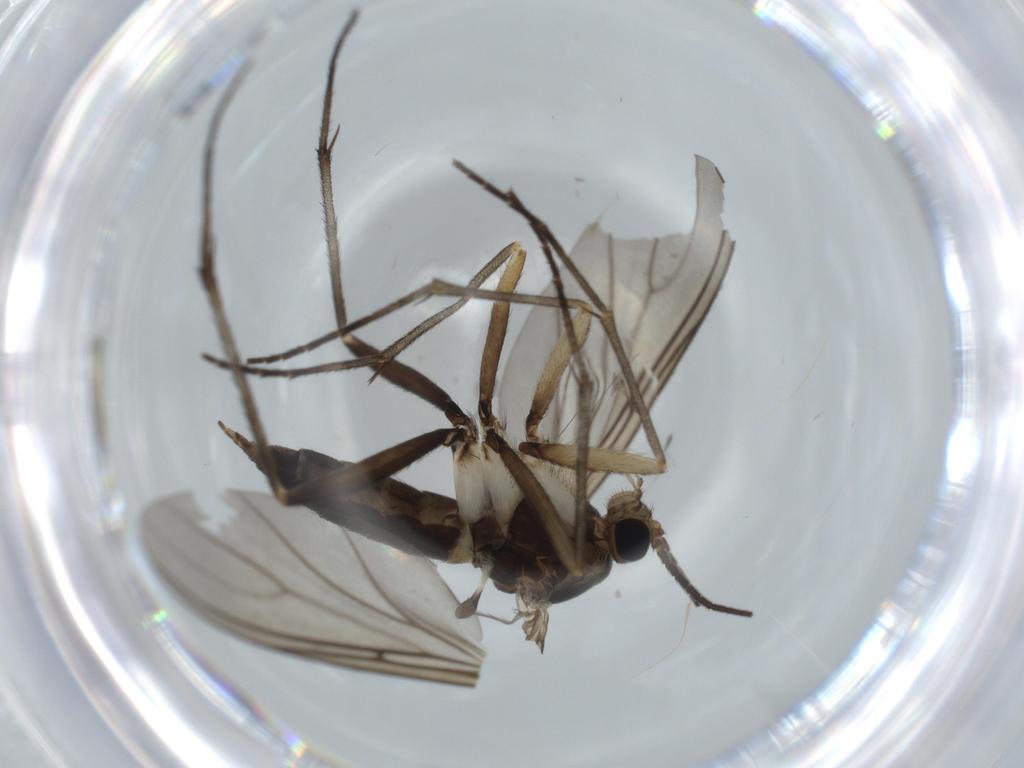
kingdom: Animalia
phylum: Arthropoda
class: Insecta
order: Diptera
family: Sciaridae
